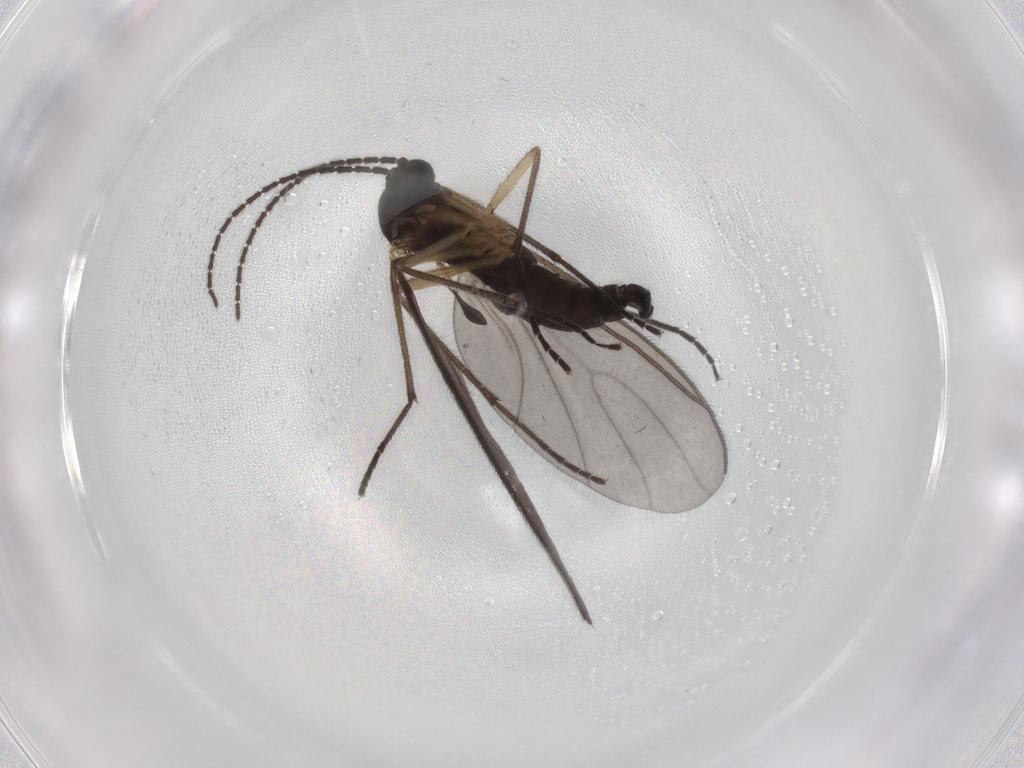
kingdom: Animalia
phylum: Arthropoda
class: Insecta
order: Diptera
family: Sciaridae
